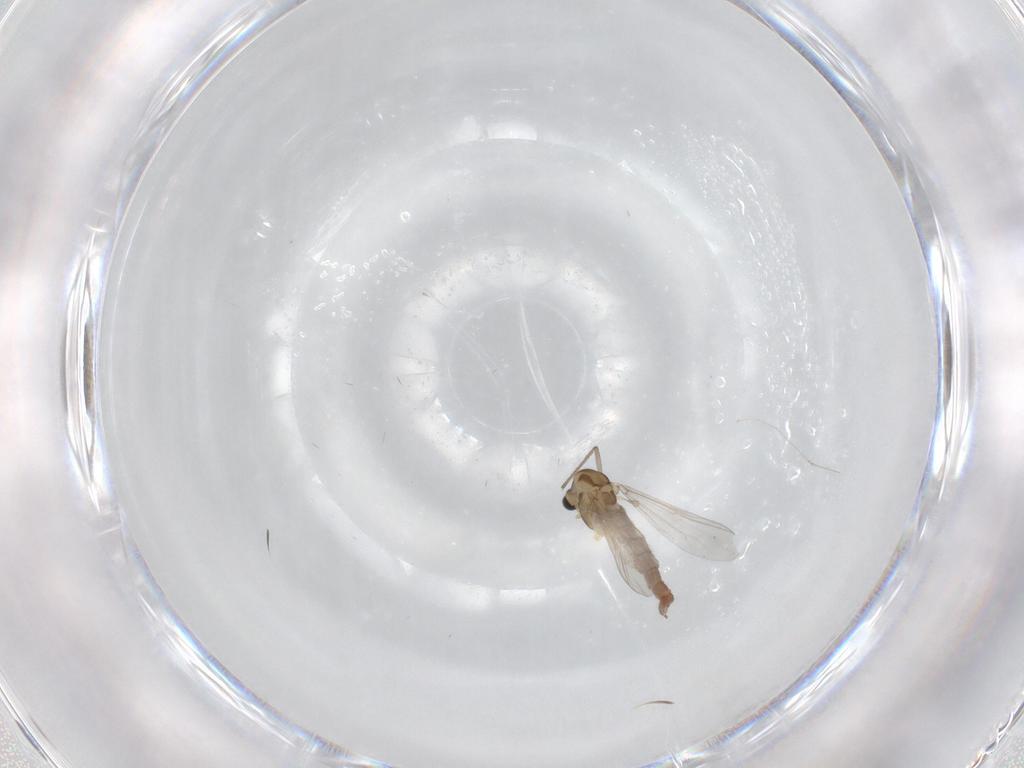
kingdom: Animalia
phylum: Arthropoda
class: Insecta
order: Diptera
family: Chironomidae
